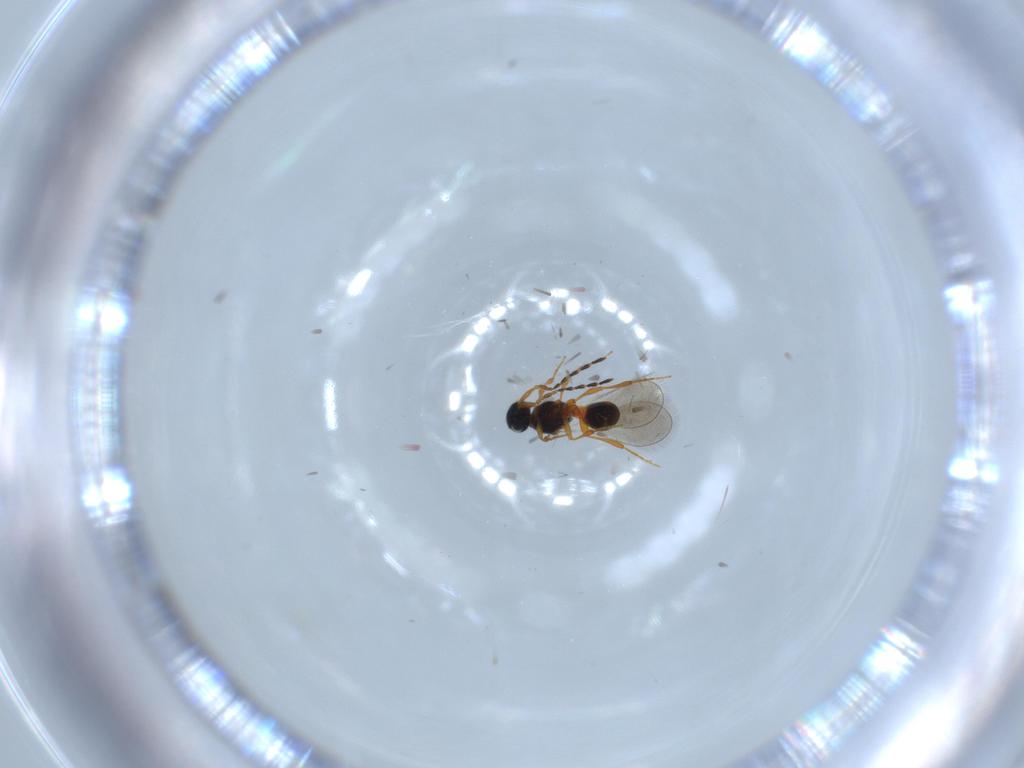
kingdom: Animalia
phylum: Arthropoda
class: Insecta
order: Hymenoptera
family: Platygastridae
